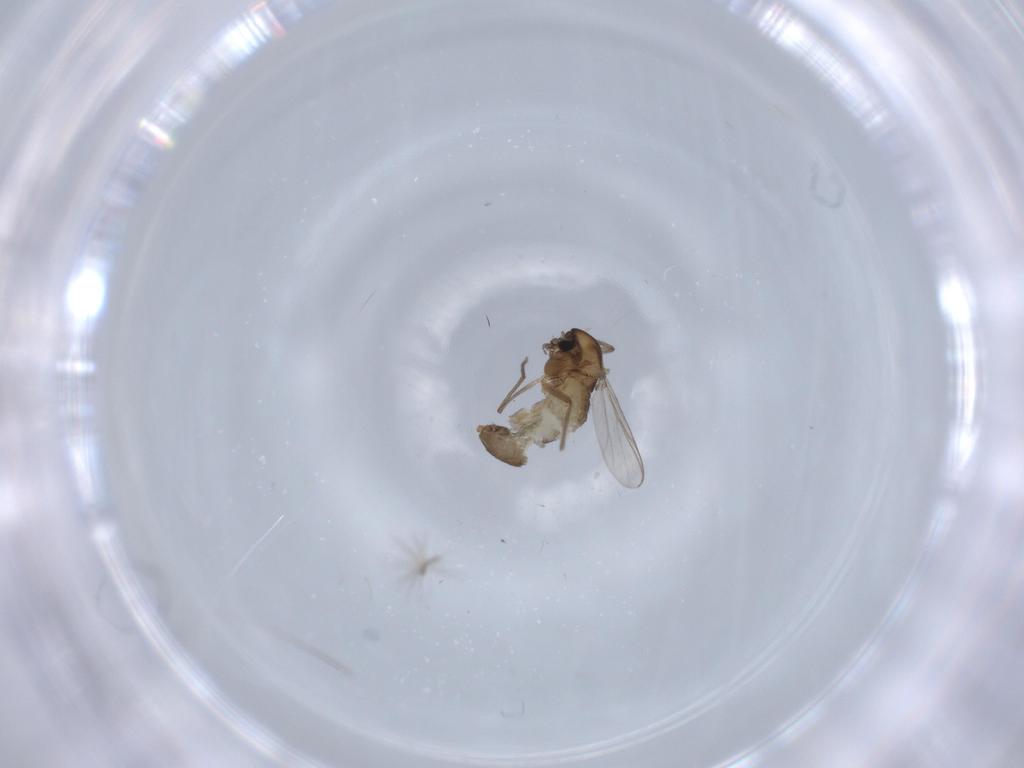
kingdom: Animalia
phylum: Arthropoda
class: Insecta
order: Diptera
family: Chironomidae
